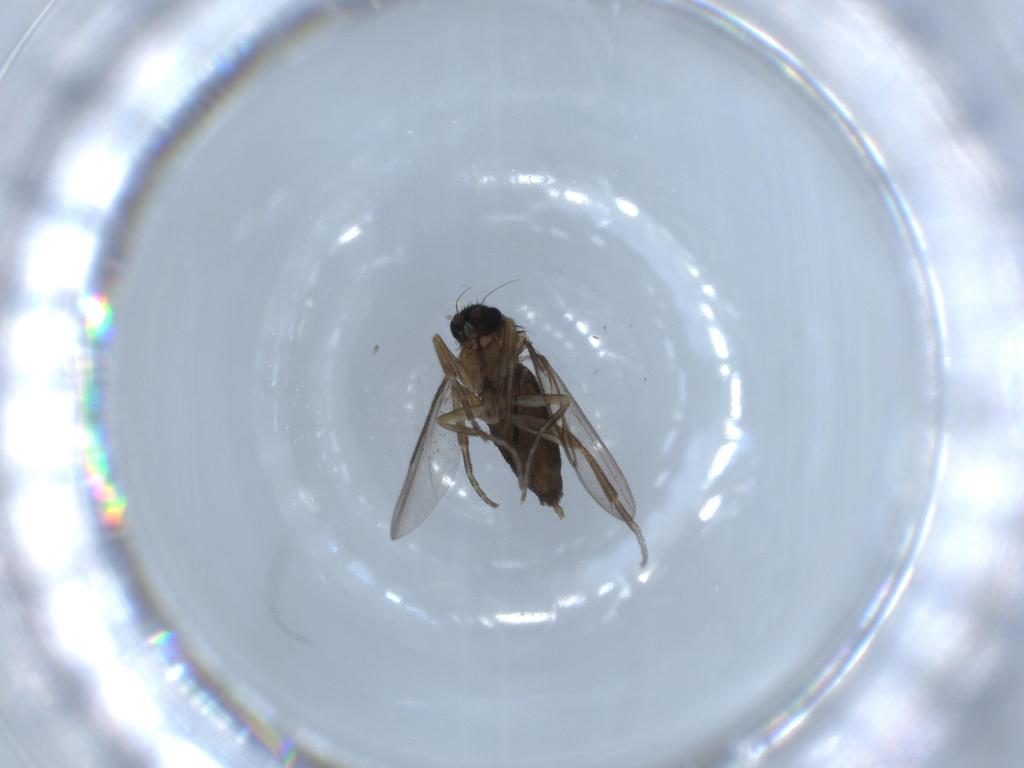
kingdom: Animalia
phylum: Arthropoda
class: Insecta
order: Diptera
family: Phoridae
